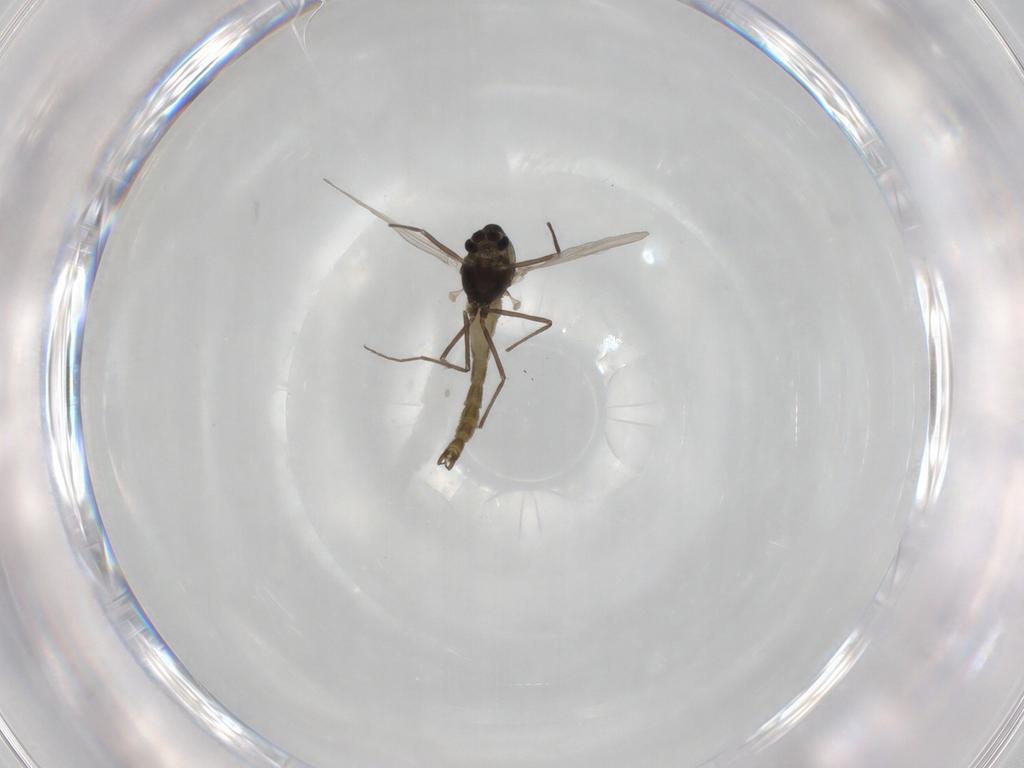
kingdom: Animalia
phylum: Arthropoda
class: Insecta
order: Diptera
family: Chironomidae
